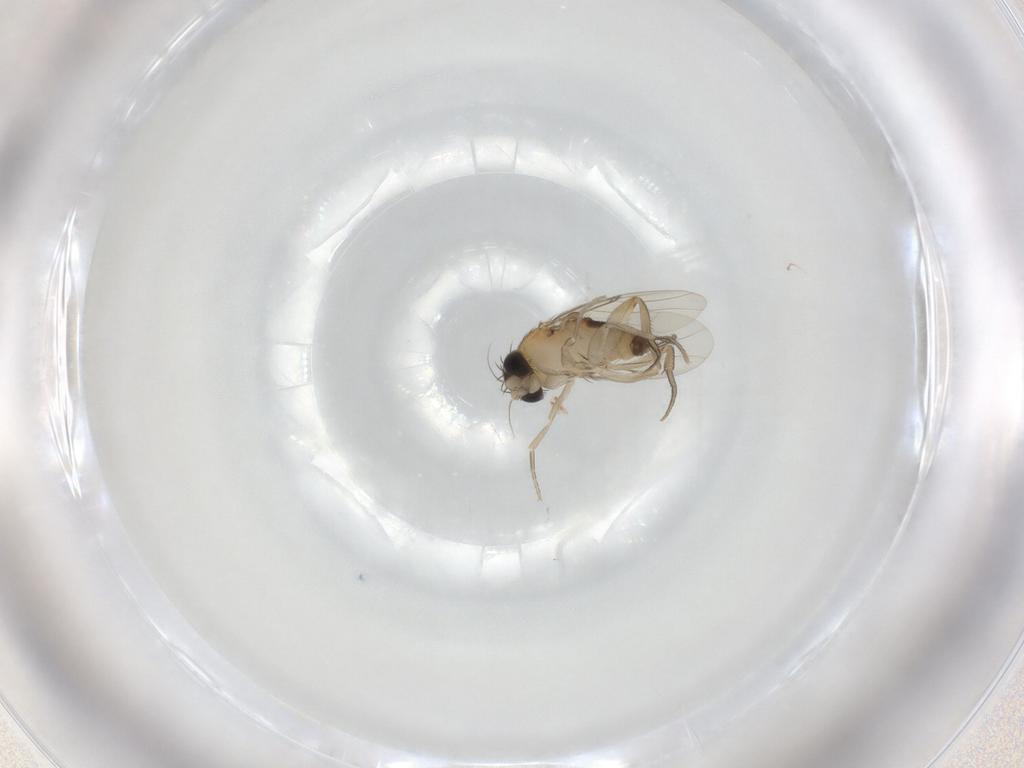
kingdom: Animalia
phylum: Arthropoda
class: Insecta
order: Diptera
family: Phoridae
